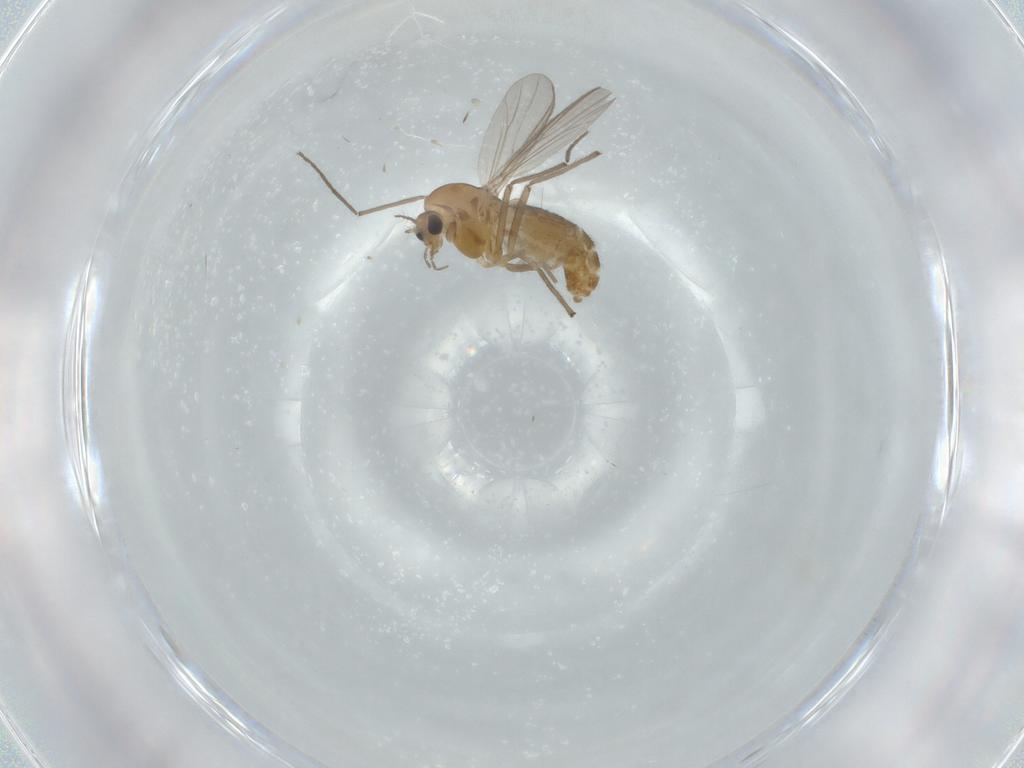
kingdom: Animalia
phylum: Arthropoda
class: Insecta
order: Diptera
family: Chironomidae
